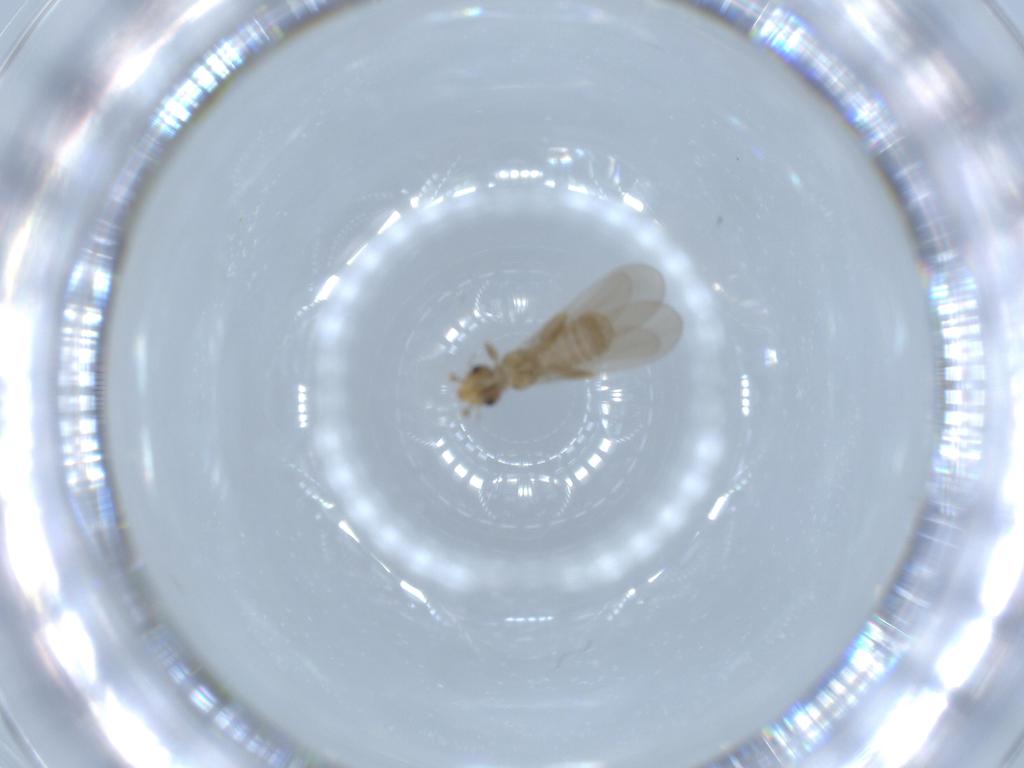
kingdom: Animalia
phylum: Arthropoda
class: Insecta
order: Psocodea
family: Liposcelididae
